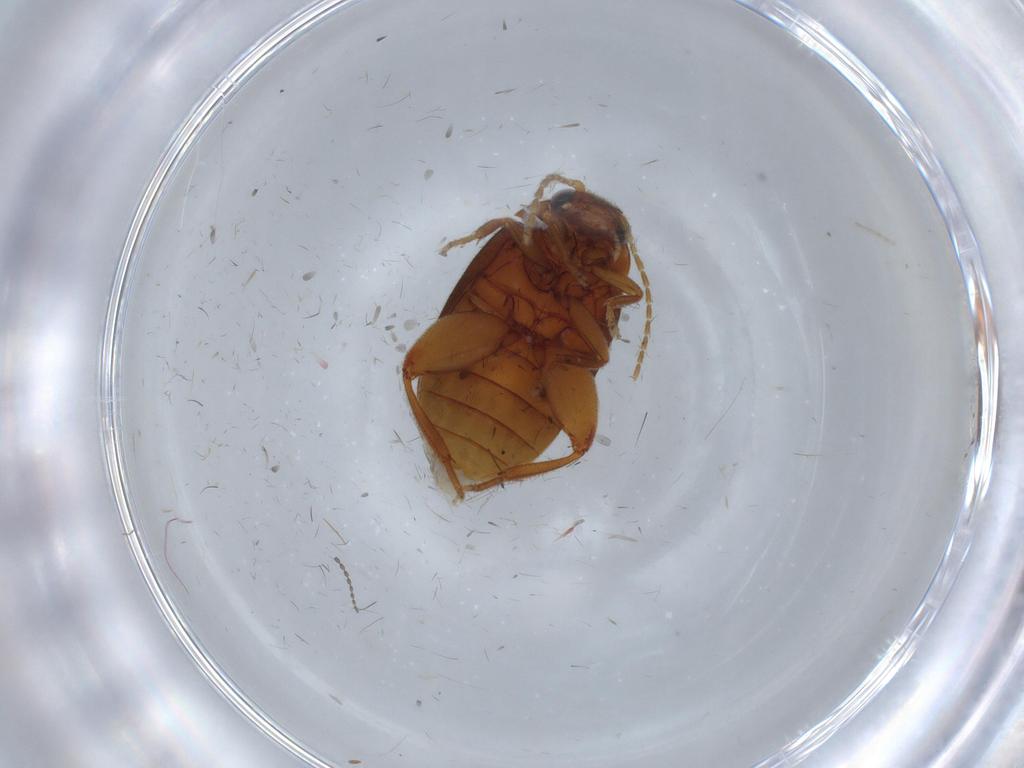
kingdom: Animalia
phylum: Arthropoda
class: Insecta
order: Coleoptera
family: Scirtidae
